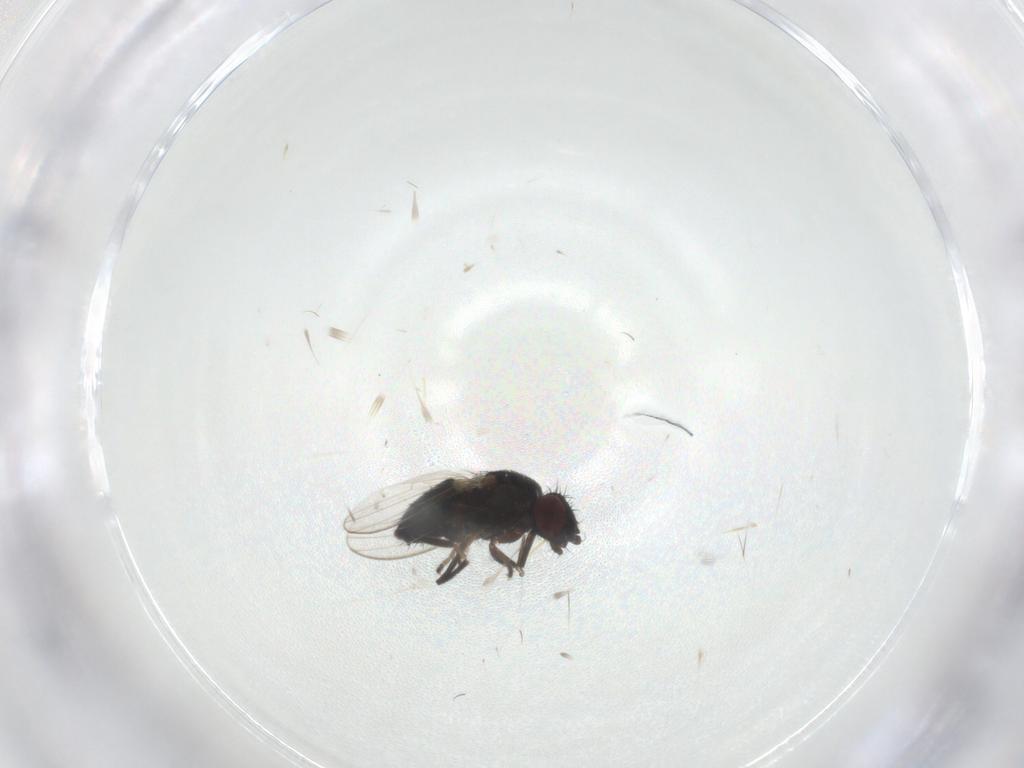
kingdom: Animalia
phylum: Arthropoda
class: Insecta
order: Diptera
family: Milichiidae
